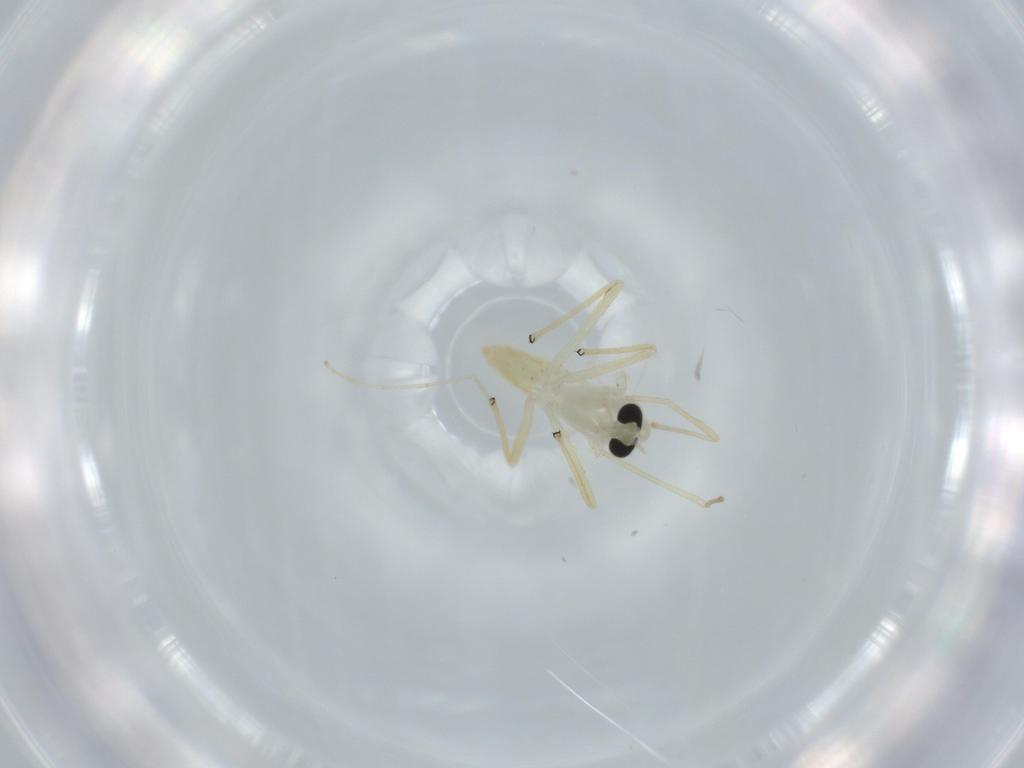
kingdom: Animalia
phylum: Arthropoda
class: Insecta
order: Diptera
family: Chironomidae
